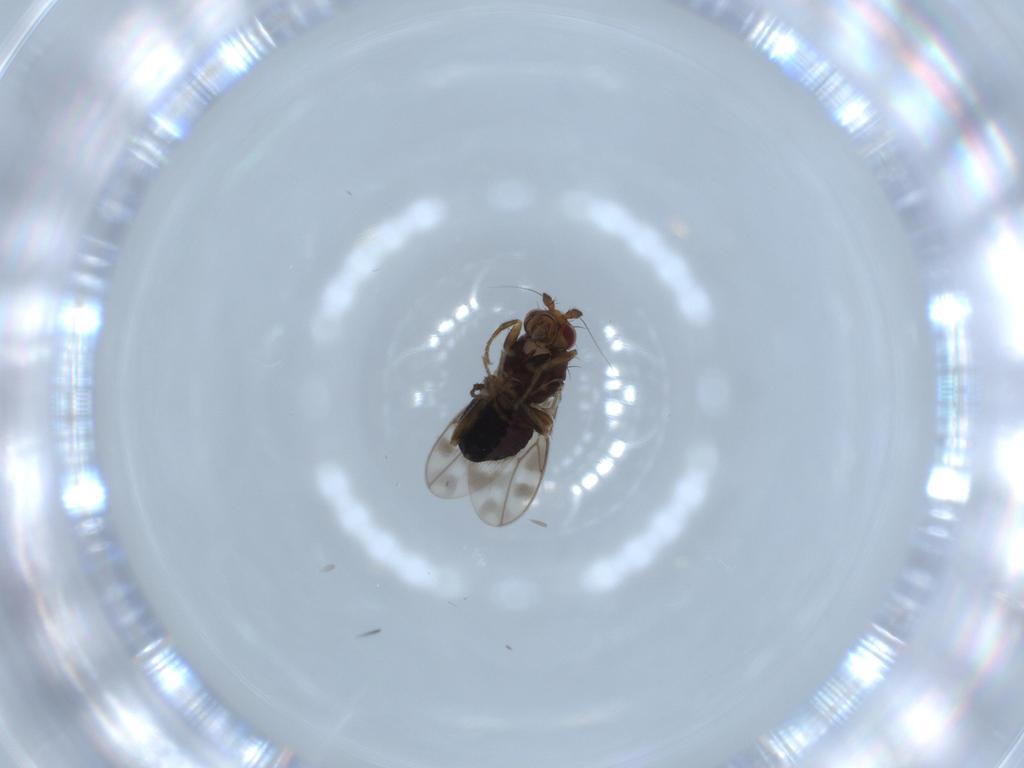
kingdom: Animalia
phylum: Arthropoda
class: Insecta
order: Diptera
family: Sphaeroceridae
